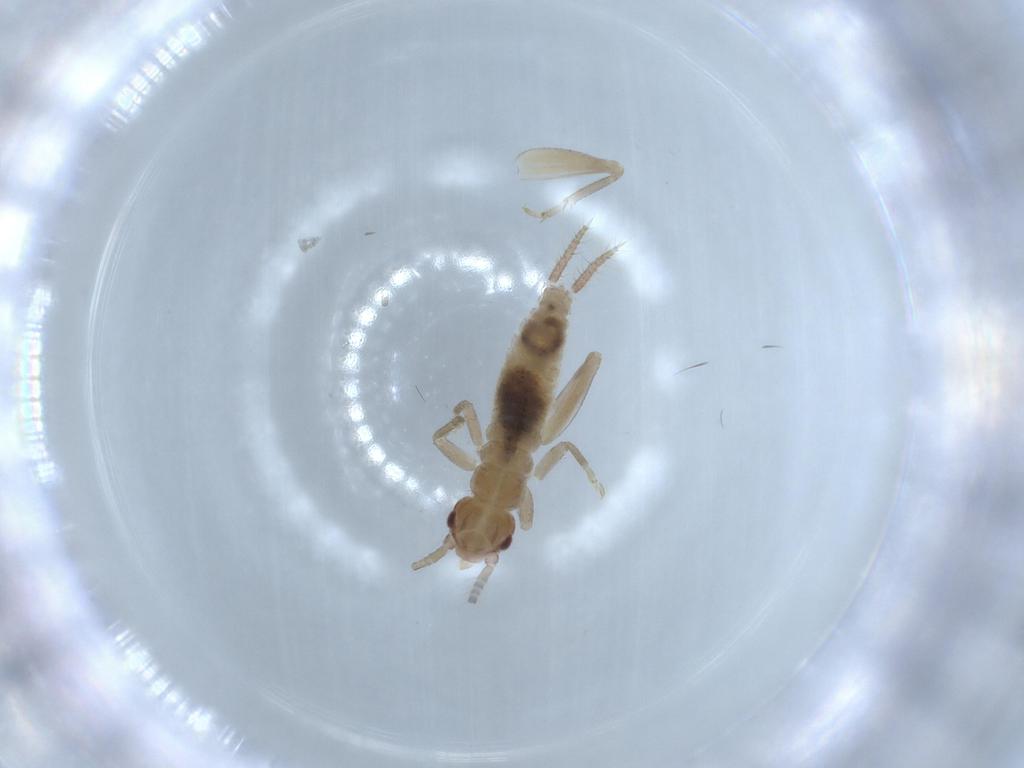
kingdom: Animalia
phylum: Arthropoda
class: Insecta
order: Orthoptera
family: Mogoplistidae
